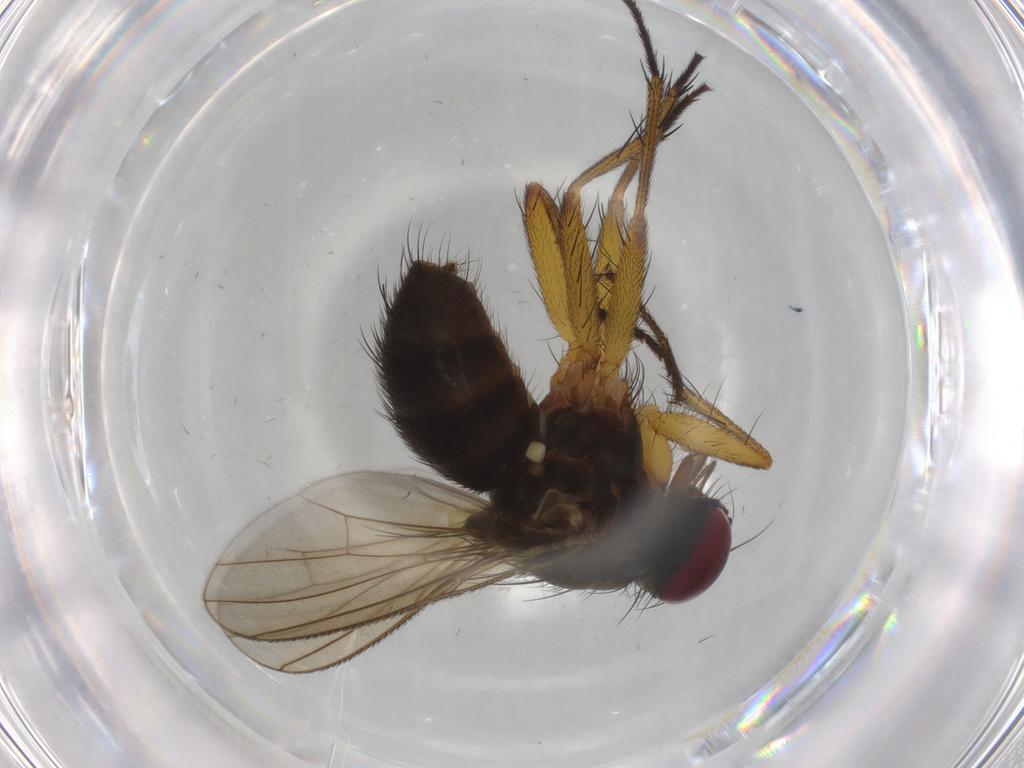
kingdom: Animalia
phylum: Arthropoda
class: Insecta
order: Diptera
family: Muscidae
